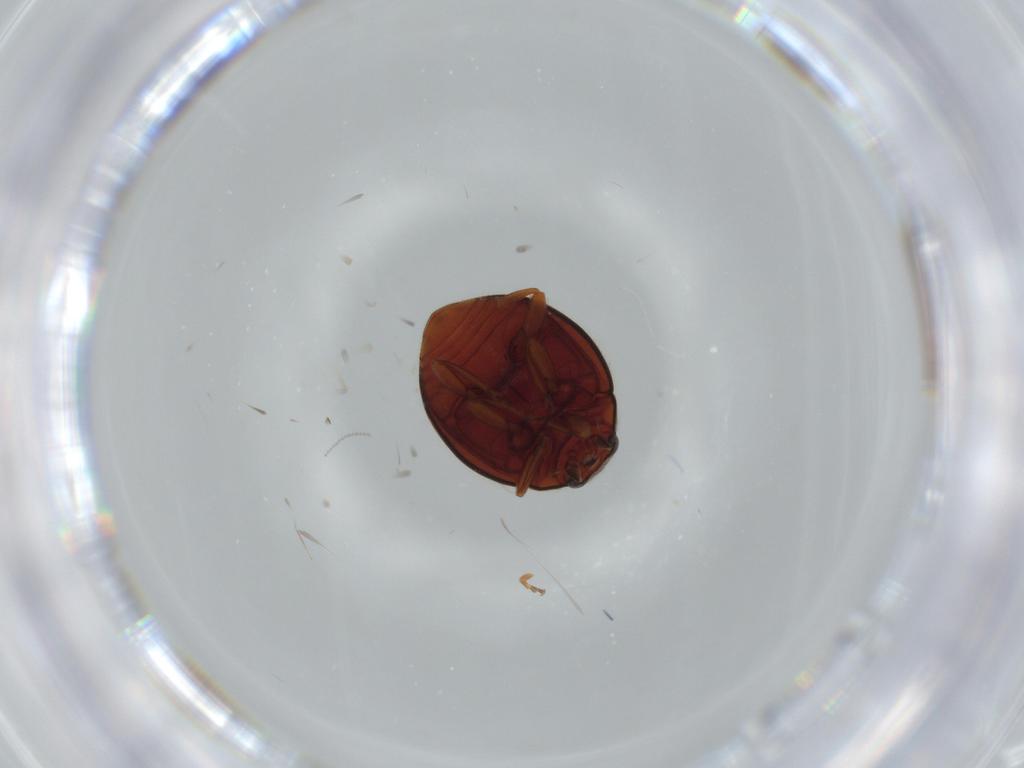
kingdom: Animalia
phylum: Arthropoda
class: Insecta
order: Coleoptera
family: Coccinellidae
